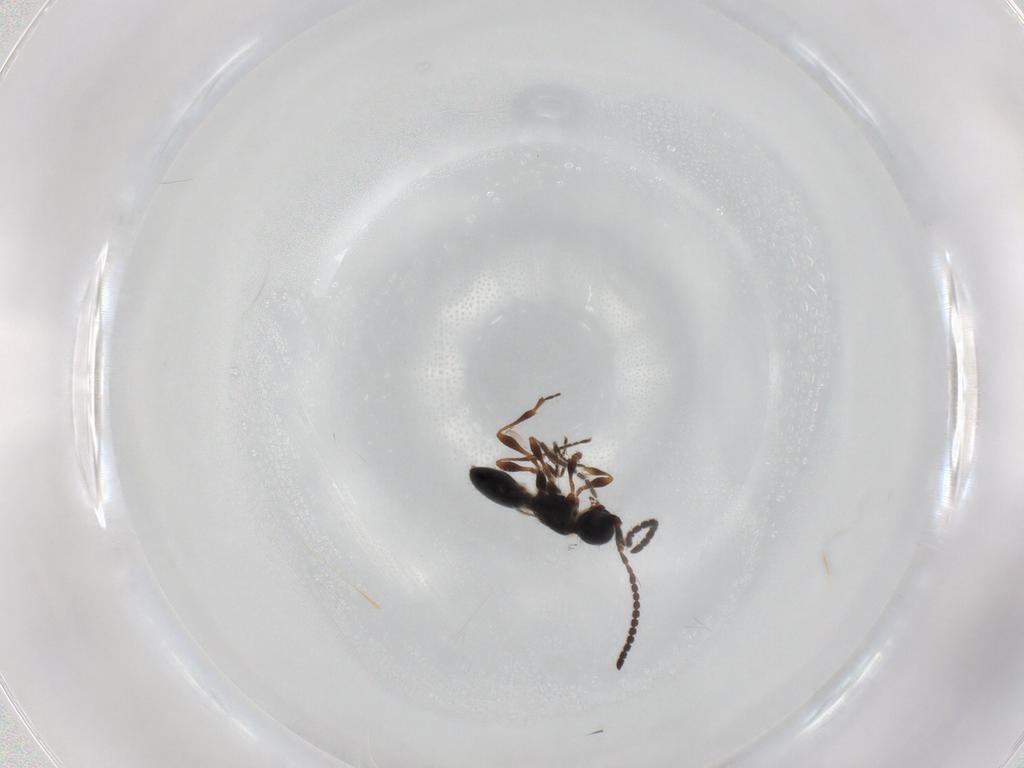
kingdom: Animalia
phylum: Arthropoda
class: Insecta
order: Hymenoptera
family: Diapriidae
